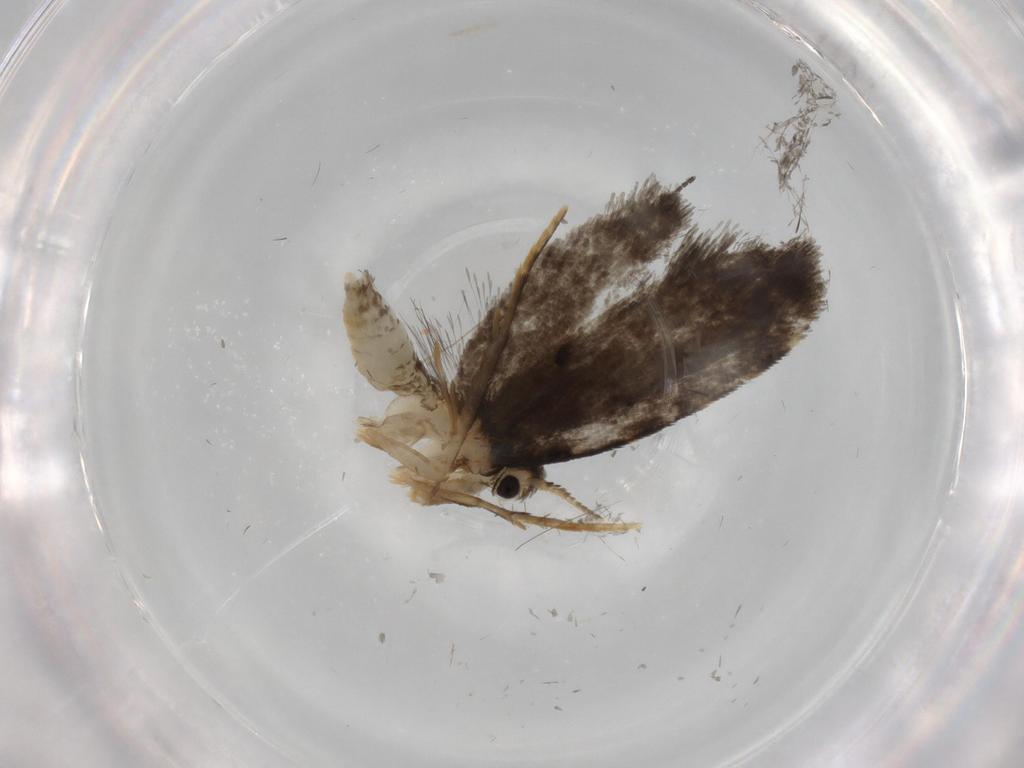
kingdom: Animalia
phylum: Arthropoda
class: Insecta
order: Lepidoptera
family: Psychidae
